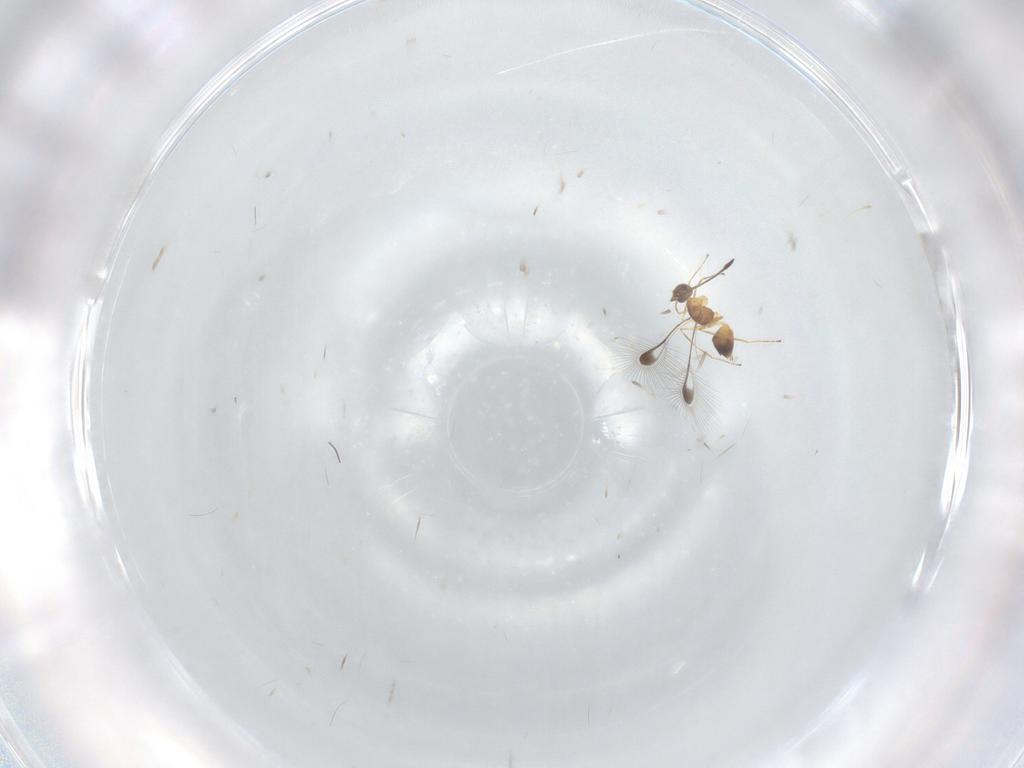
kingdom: Animalia
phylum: Arthropoda
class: Insecta
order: Hymenoptera
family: Mymaridae
